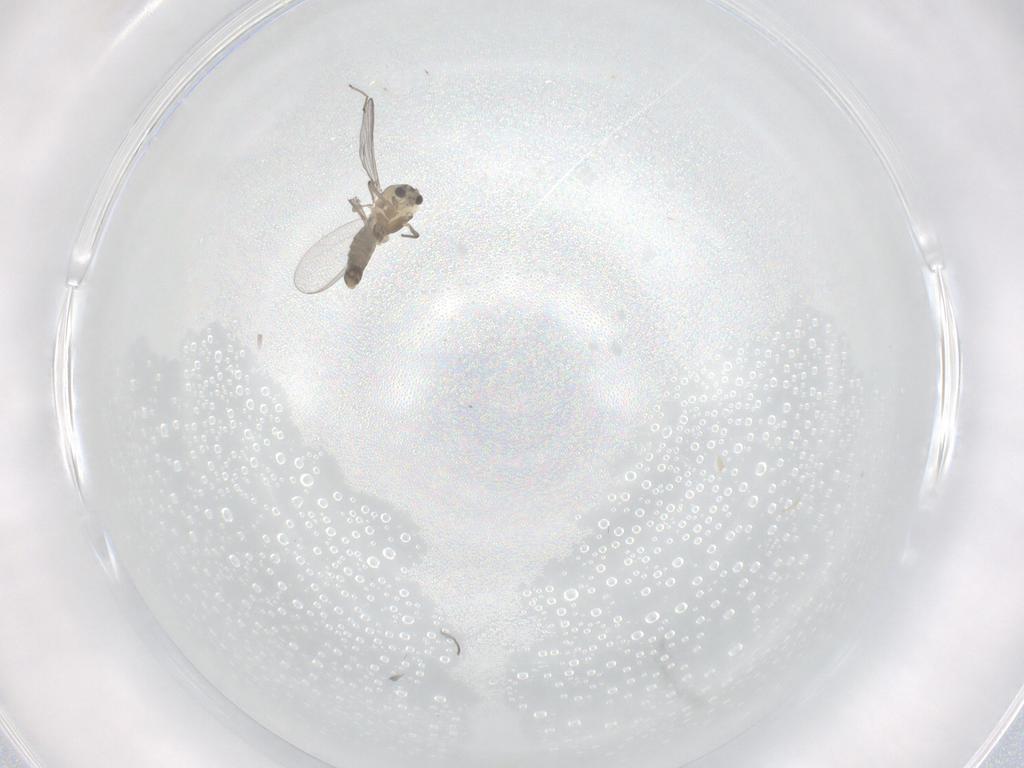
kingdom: Animalia
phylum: Arthropoda
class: Insecta
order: Diptera
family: Chironomidae
